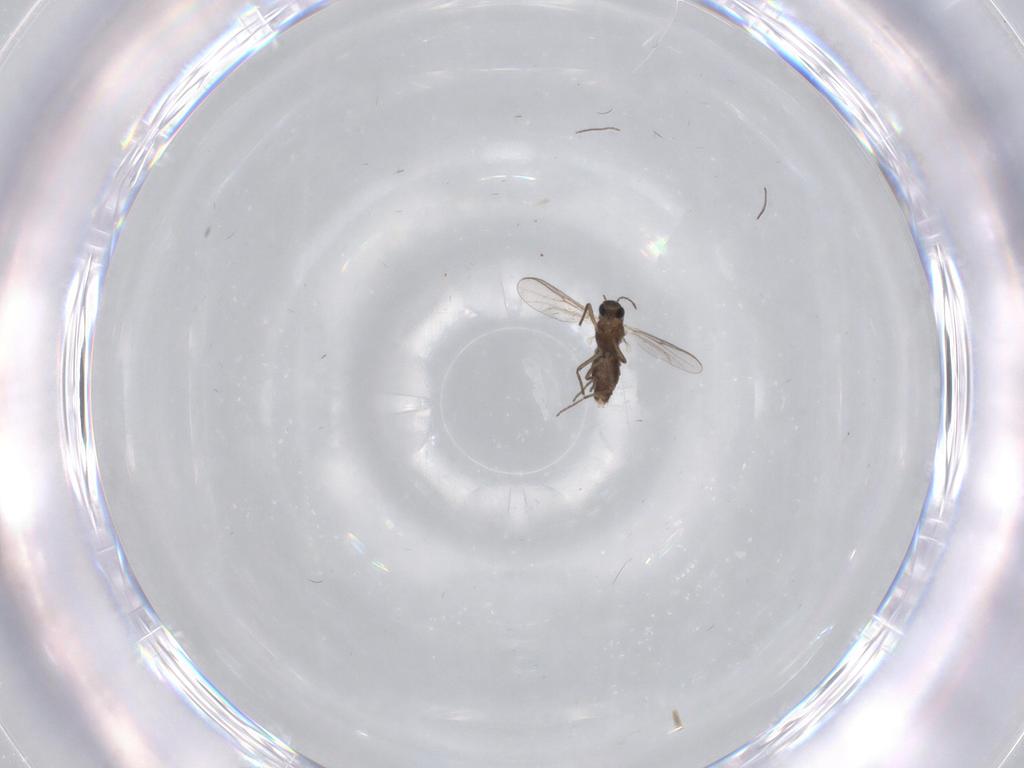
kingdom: Animalia
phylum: Arthropoda
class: Insecta
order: Diptera
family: Chironomidae
